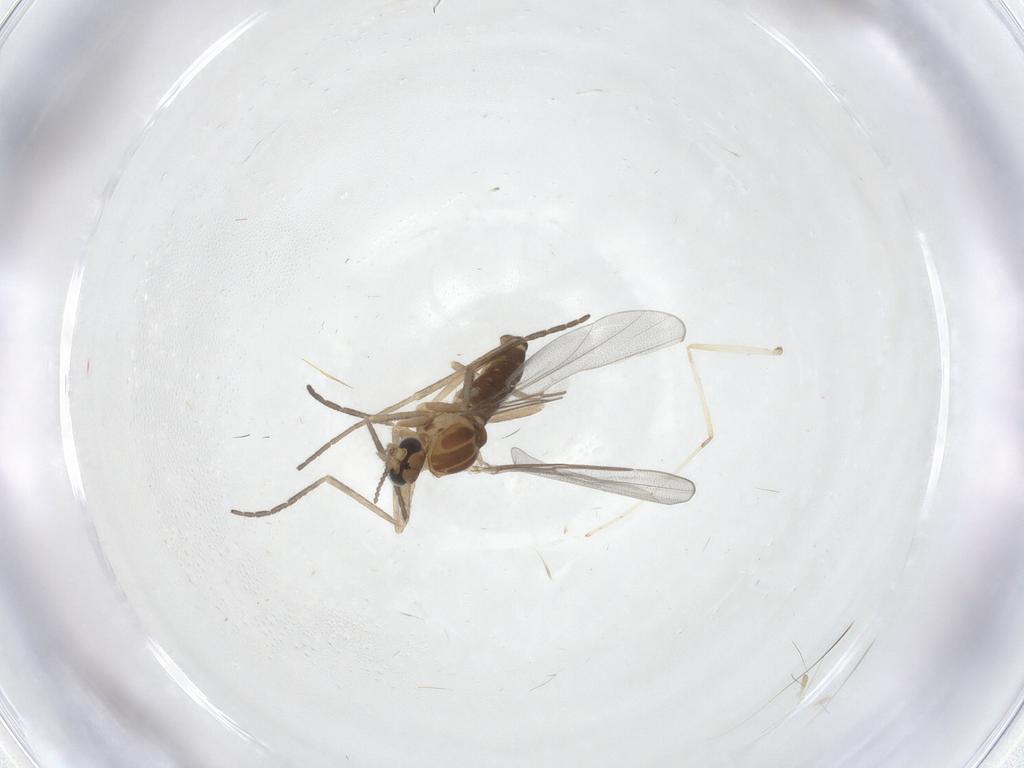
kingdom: Animalia
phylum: Arthropoda
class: Insecta
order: Diptera
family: Cecidomyiidae
